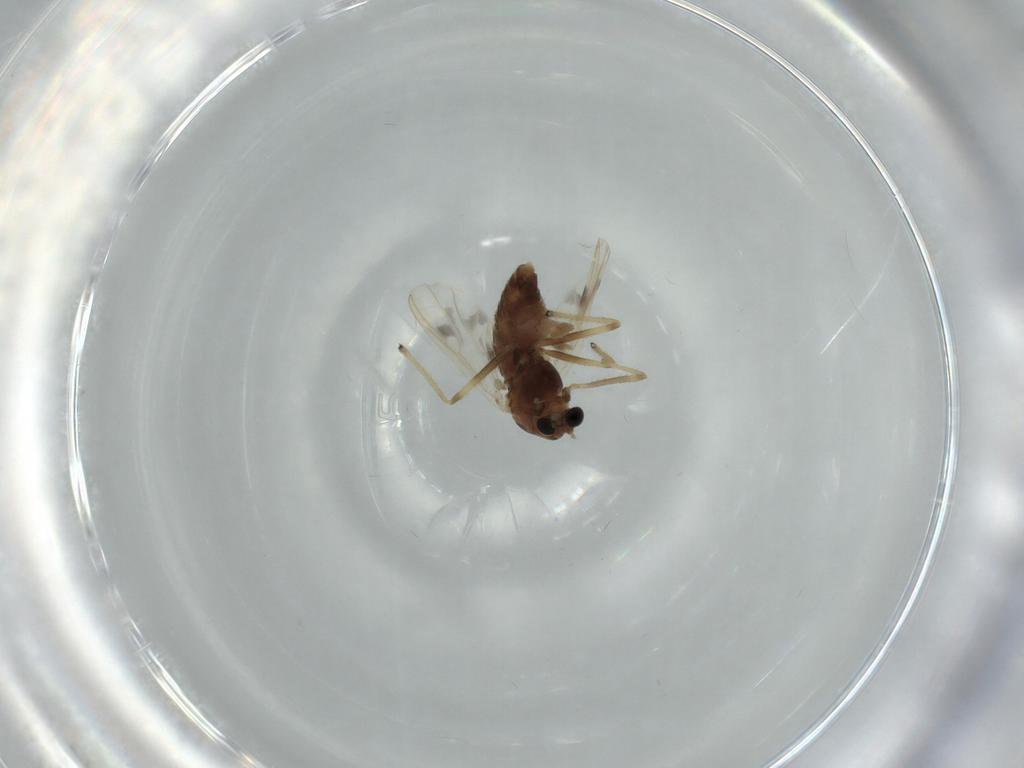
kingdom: Animalia
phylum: Arthropoda
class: Insecta
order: Diptera
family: Chironomidae
